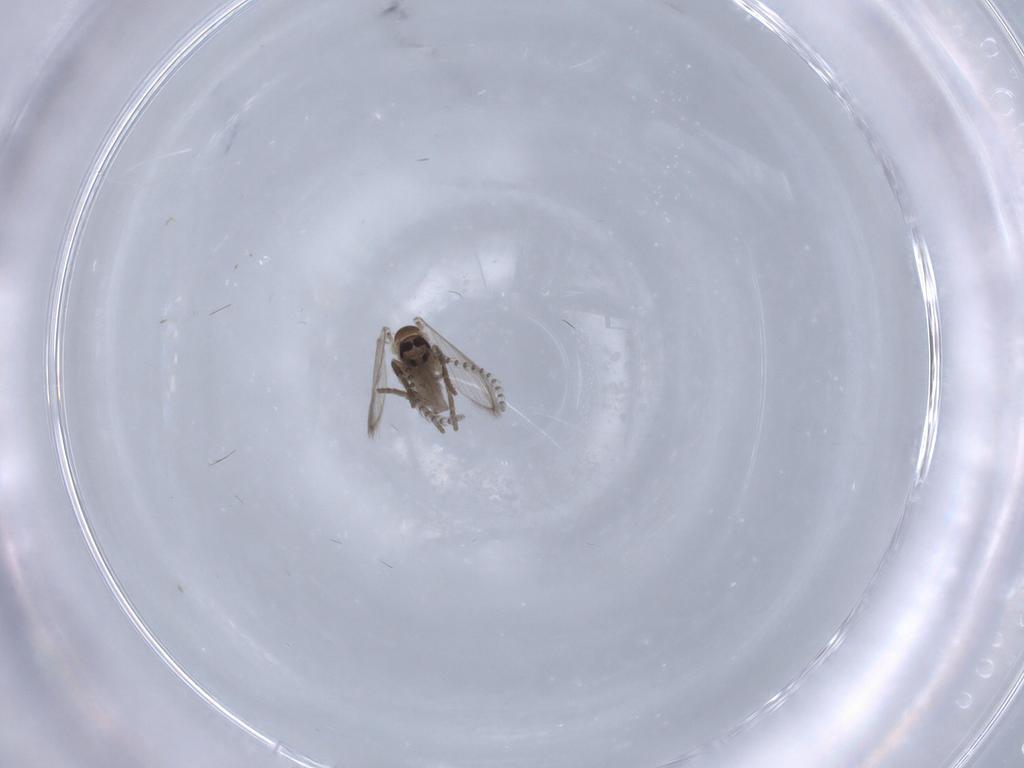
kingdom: Animalia
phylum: Arthropoda
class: Insecta
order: Diptera
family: Psychodidae
